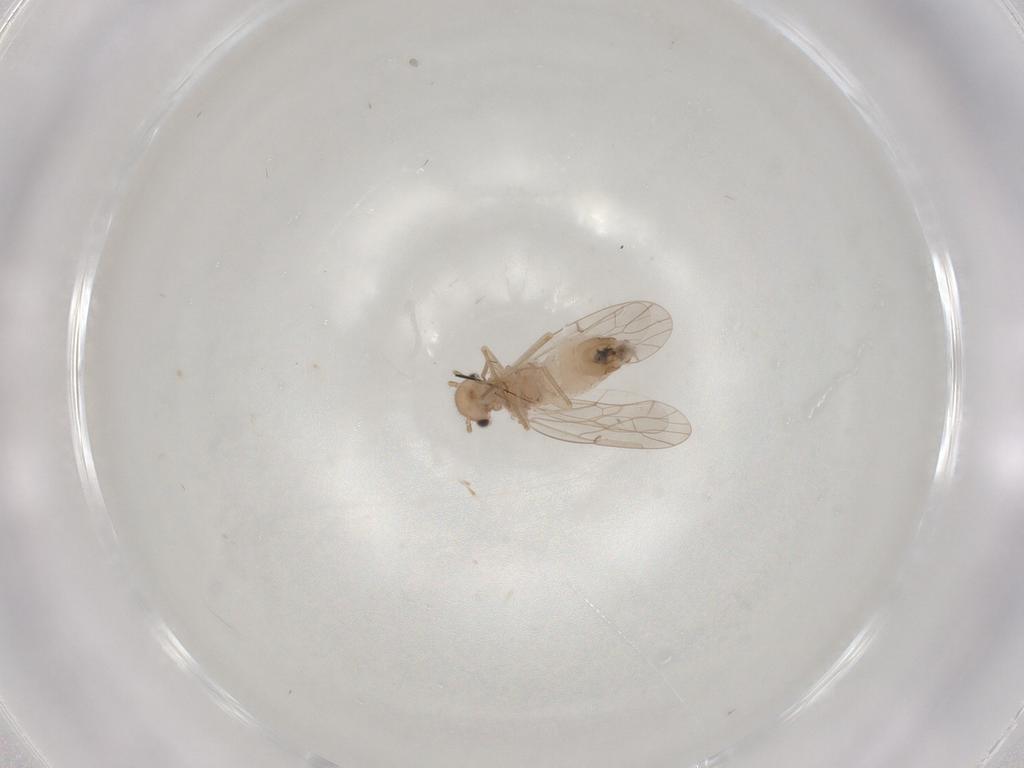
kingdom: Animalia
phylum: Arthropoda
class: Insecta
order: Psocodea
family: Ectopsocidae
